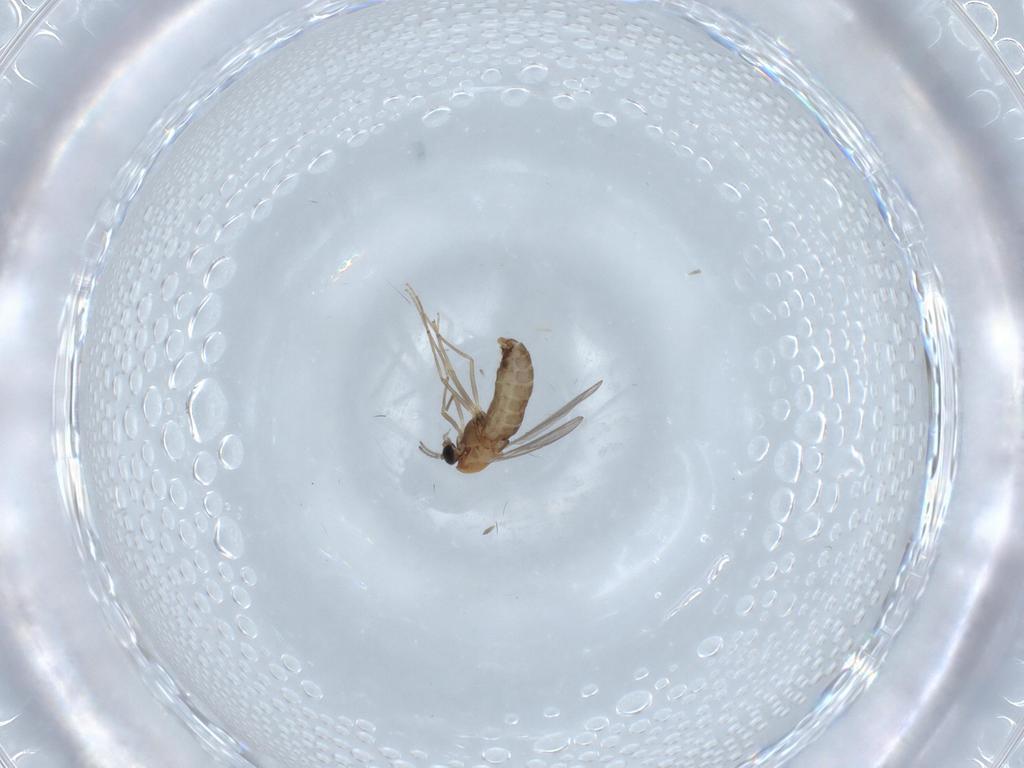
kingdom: Animalia
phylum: Arthropoda
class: Insecta
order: Diptera
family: Chironomidae
